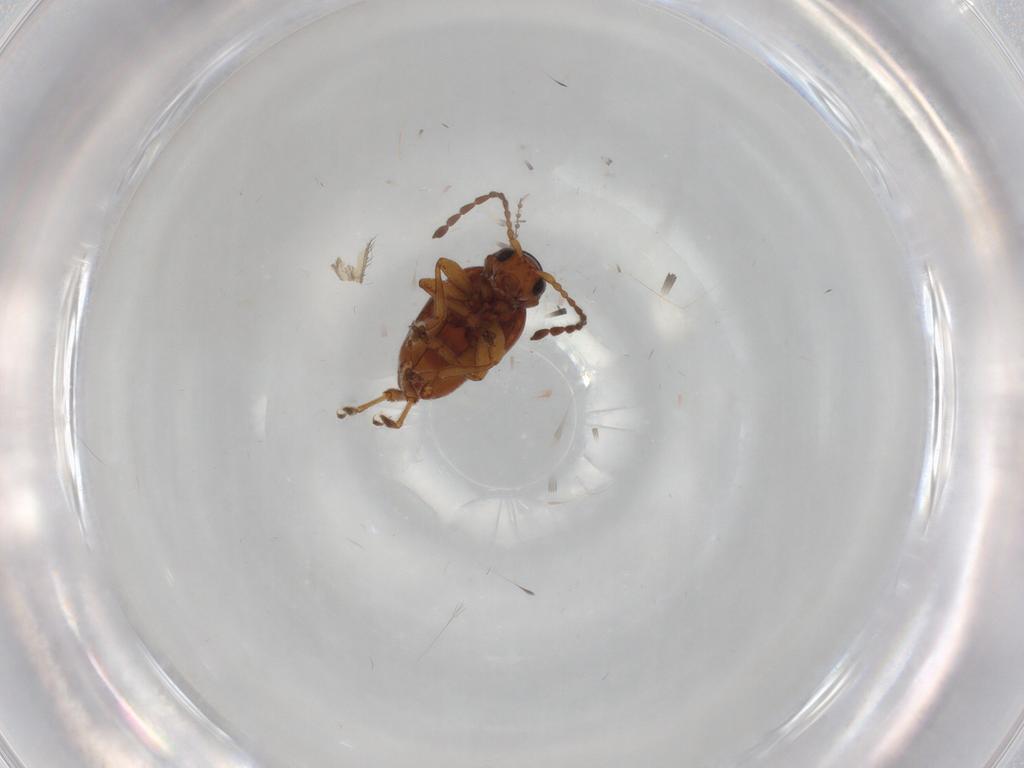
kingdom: Animalia
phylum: Arthropoda
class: Insecta
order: Coleoptera
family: Chrysomelidae
